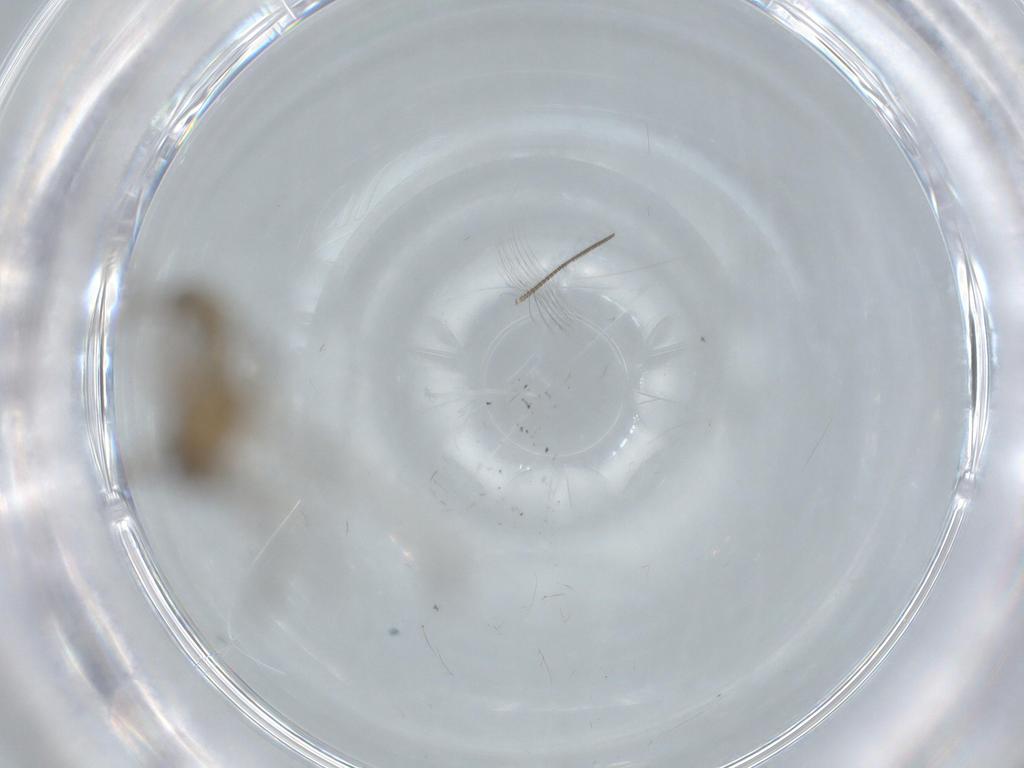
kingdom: Animalia
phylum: Arthropoda
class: Insecta
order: Diptera
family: Chironomidae
